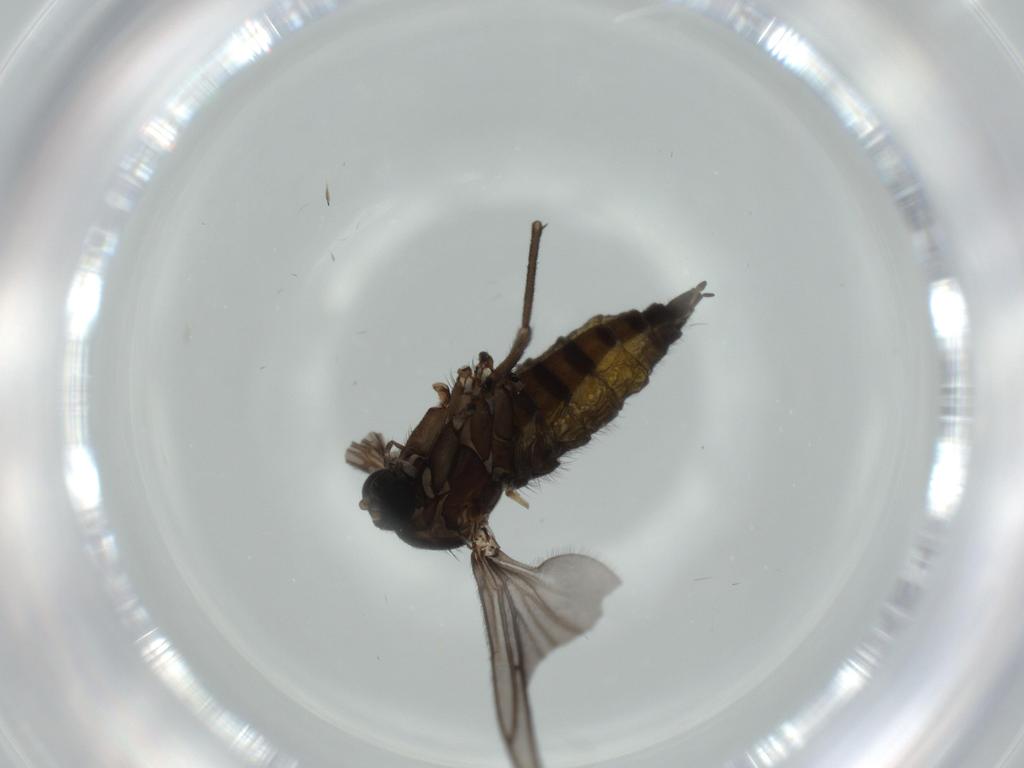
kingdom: Animalia
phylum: Arthropoda
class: Insecta
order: Diptera
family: Sciaridae
